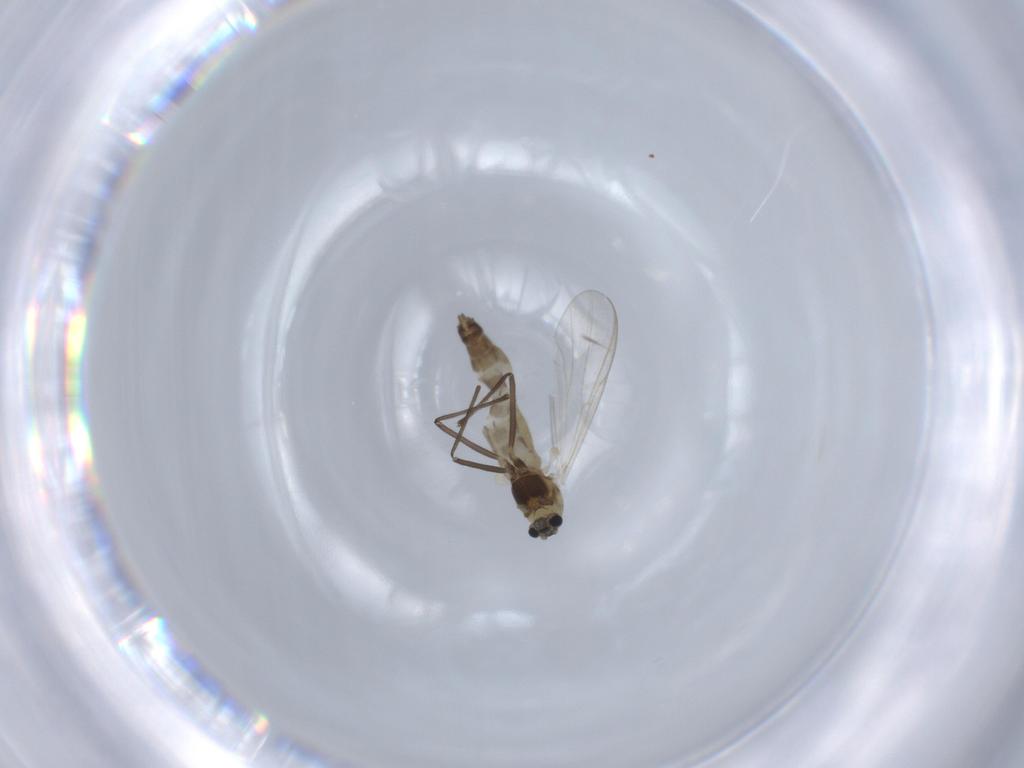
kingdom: Animalia
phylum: Arthropoda
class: Insecta
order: Diptera
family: Chironomidae
